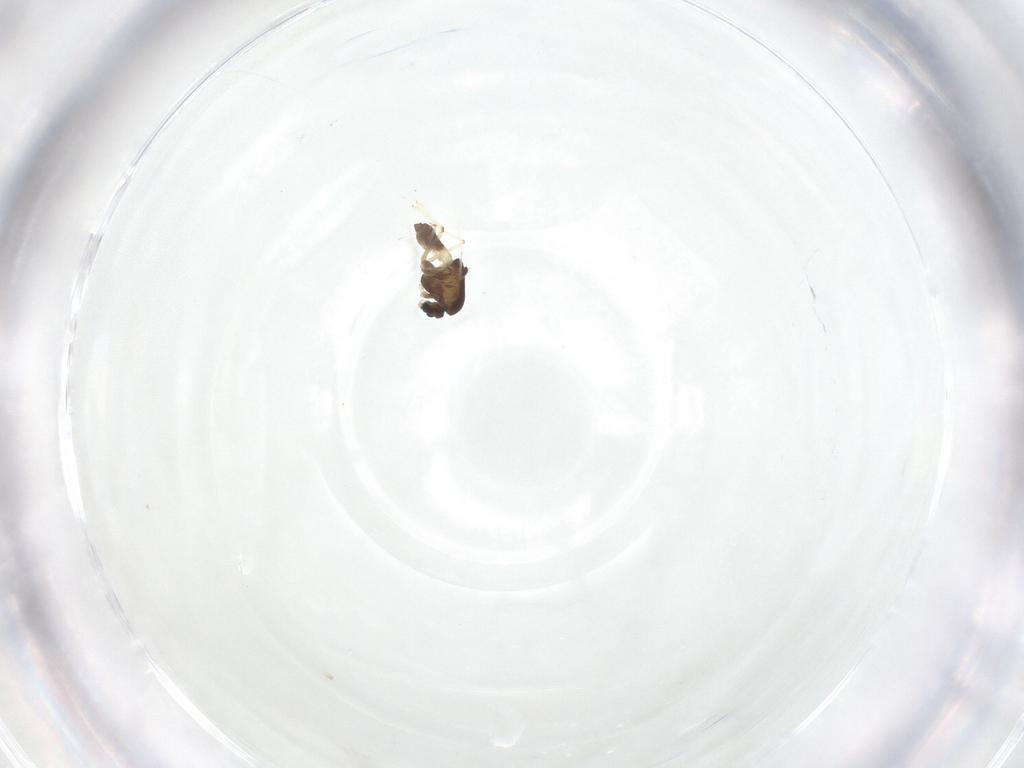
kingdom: Animalia
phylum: Arthropoda
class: Insecta
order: Diptera
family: Chironomidae
